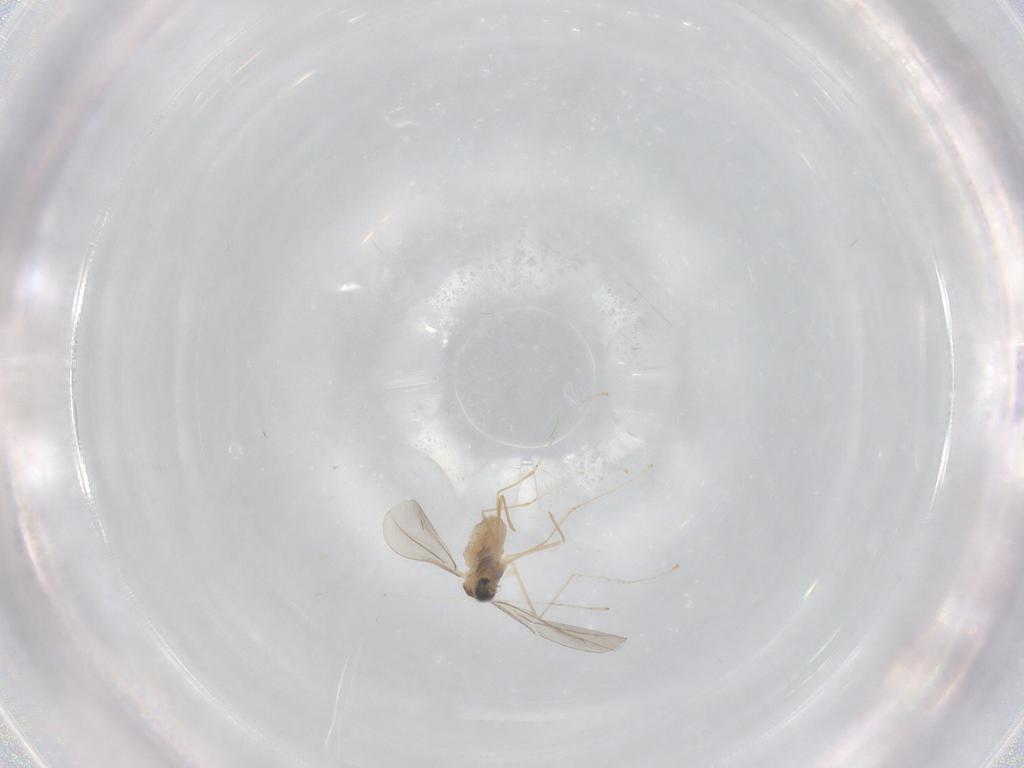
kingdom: Animalia
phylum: Arthropoda
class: Insecta
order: Diptera
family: Cecidomyiidae
